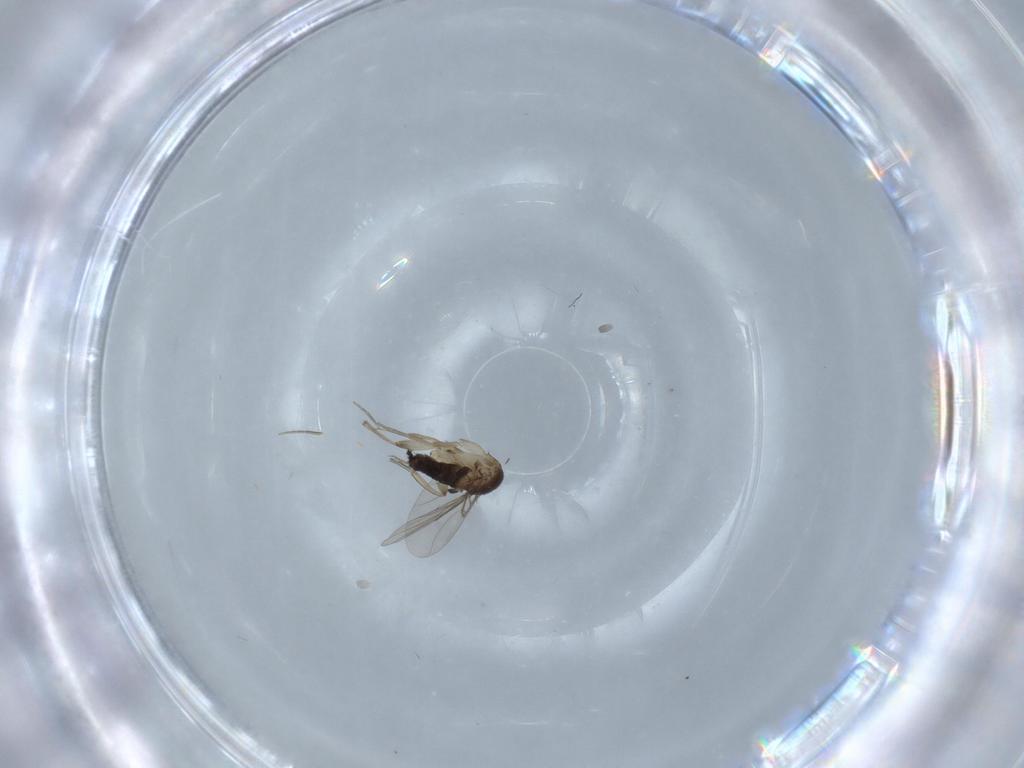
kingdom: Animalia
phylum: Arthropoda
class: Insecta
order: Diptera
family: Phoridae
